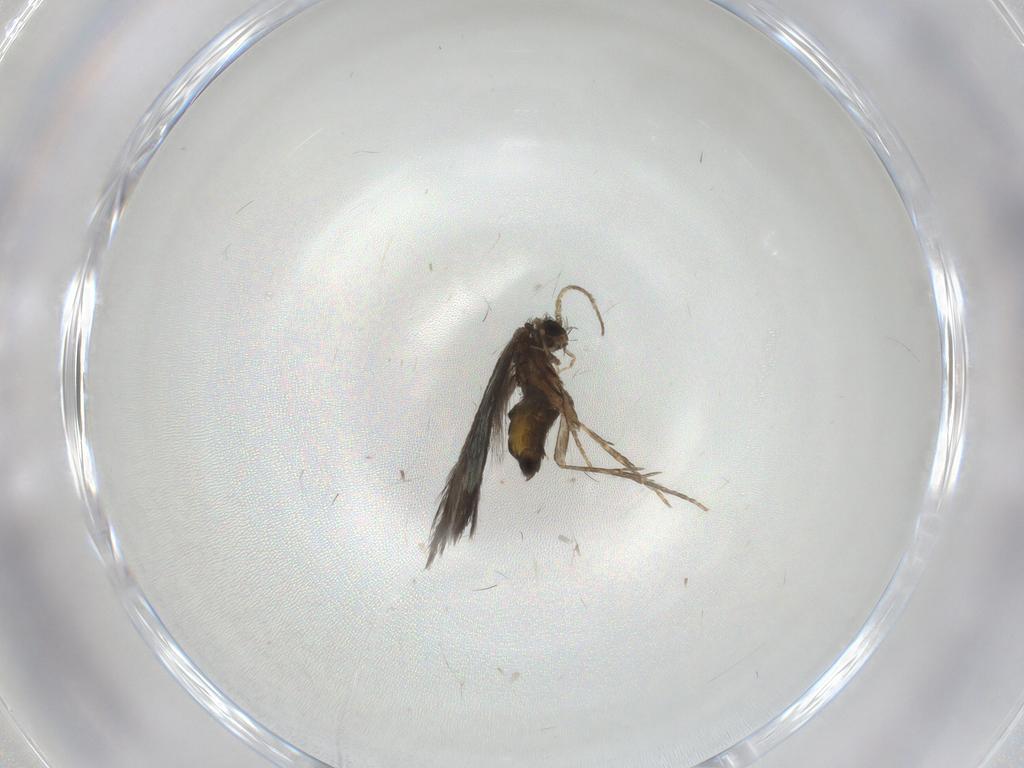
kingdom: Animalia
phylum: Arthropoda
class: Insecta
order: Trichoptera
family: Hydroptilidae
